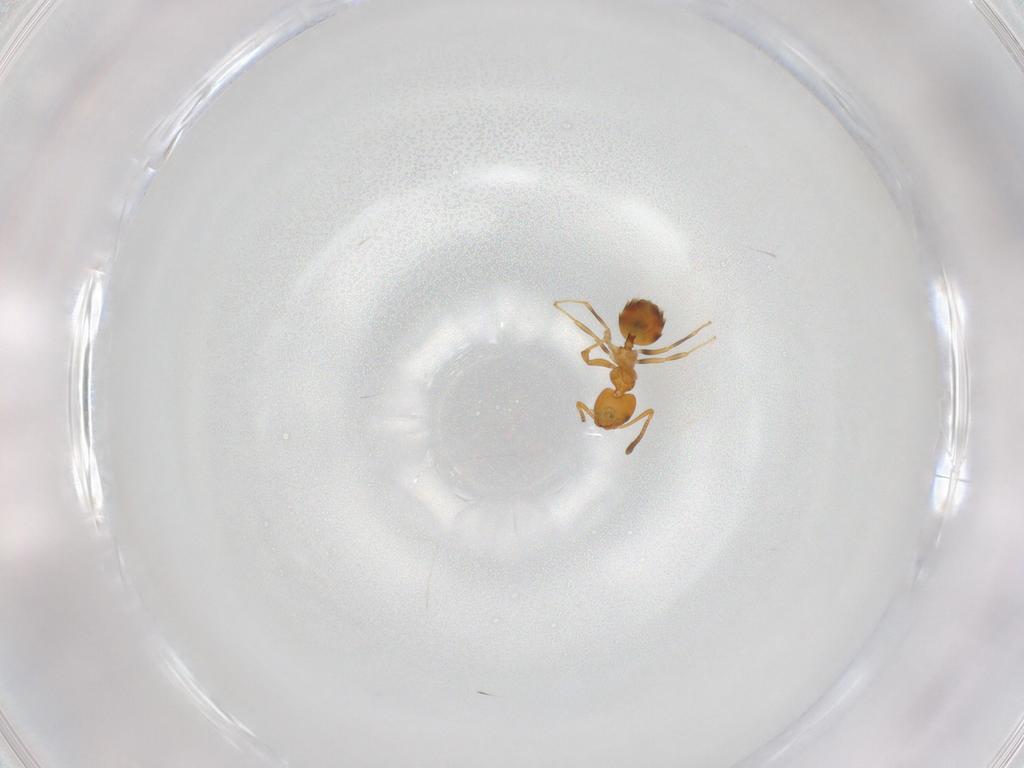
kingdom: Animalia
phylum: Arthropoda
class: Insecta
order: Hymenoptera
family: Formicidae
